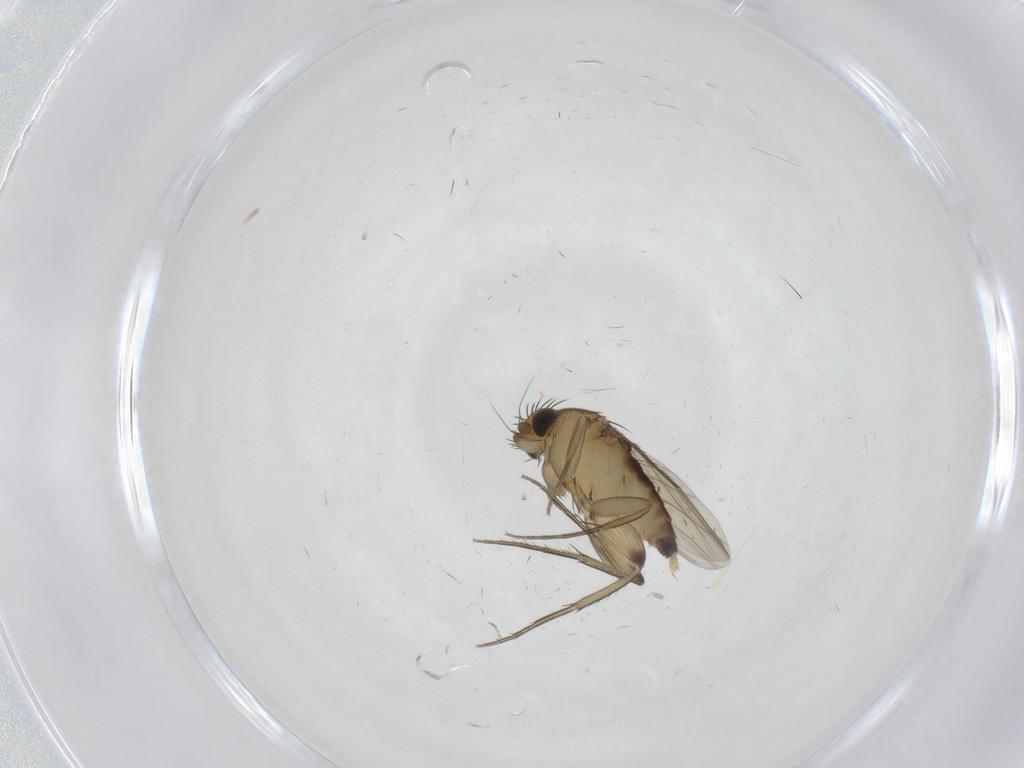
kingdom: Animalia
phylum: Arthropoda
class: Insecta
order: Diptera
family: Phoridae
